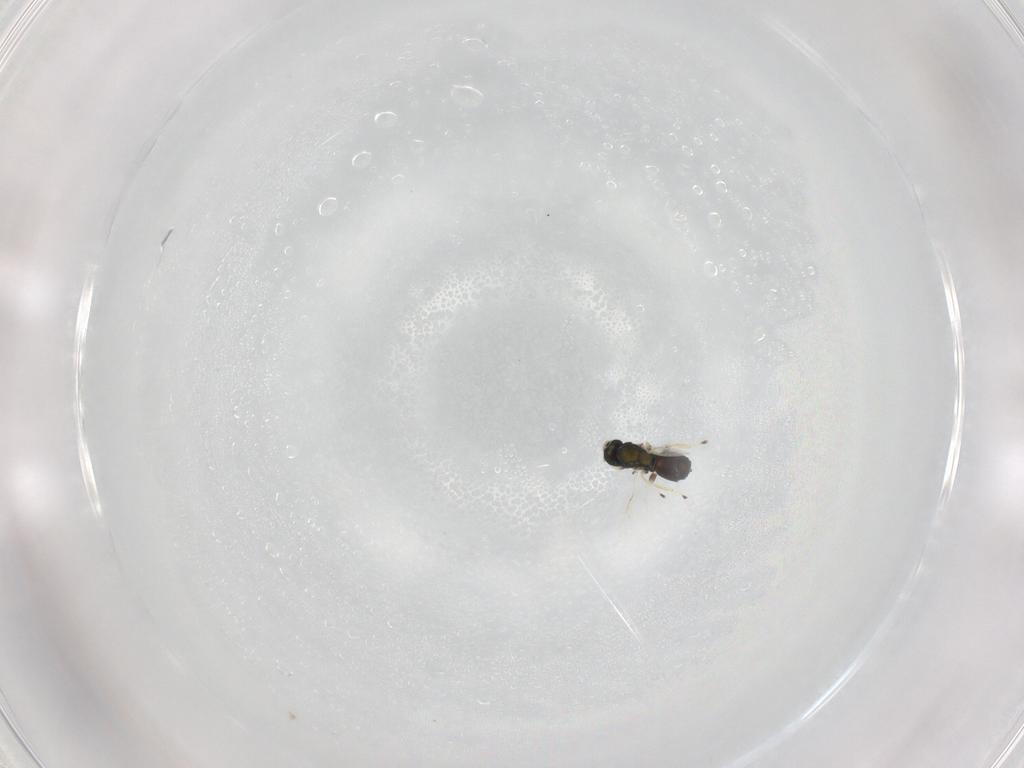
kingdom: Animalia
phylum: Arthropoda
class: Insecta
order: Hymenoptera
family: Eulophidae
